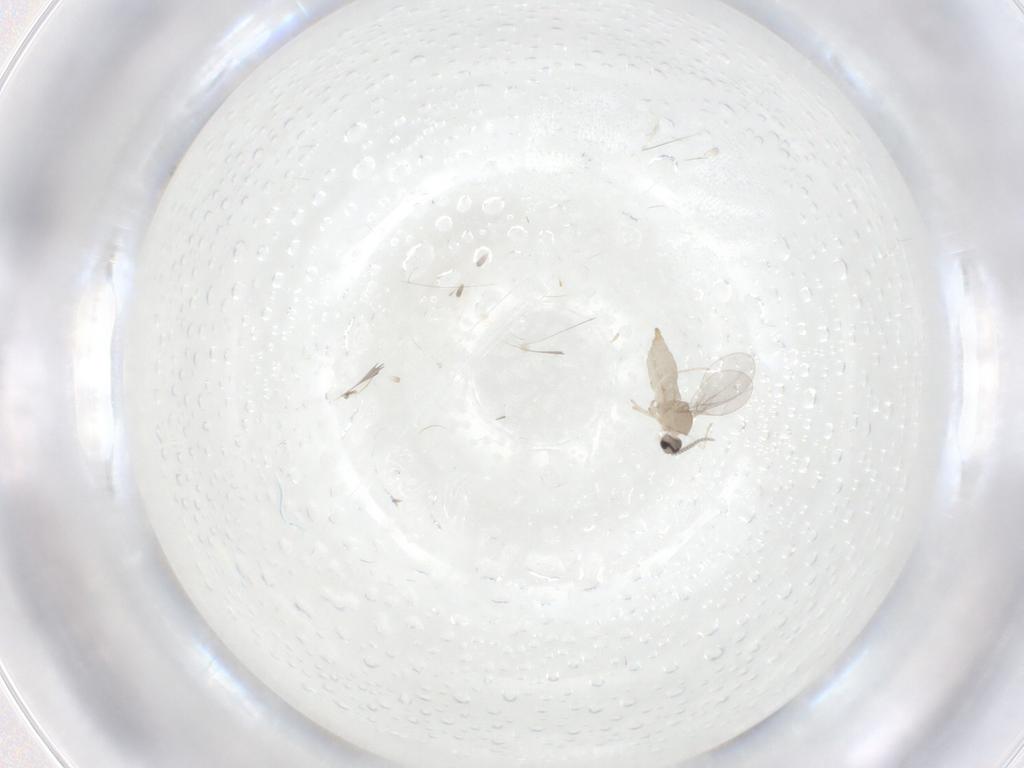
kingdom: Animalia
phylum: Arthropoda
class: Insecta
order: Diptera
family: Cecidomyiidae
